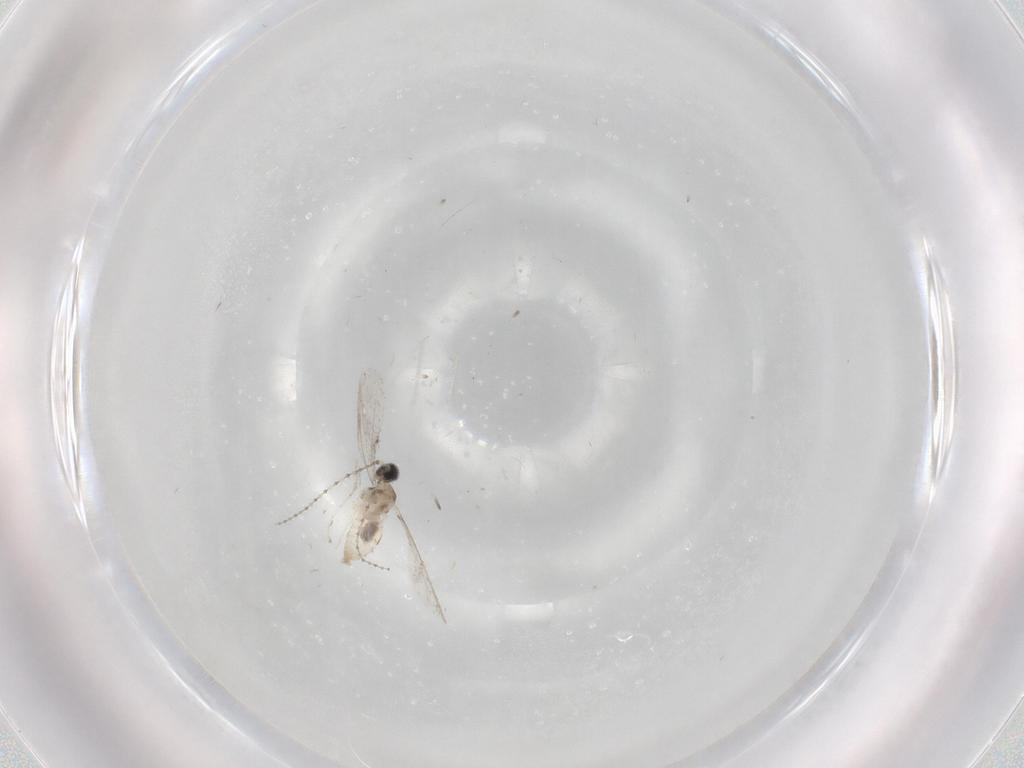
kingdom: Animalia
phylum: Arthropoda
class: Insecta
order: Diptera
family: Cecidomyiidae
